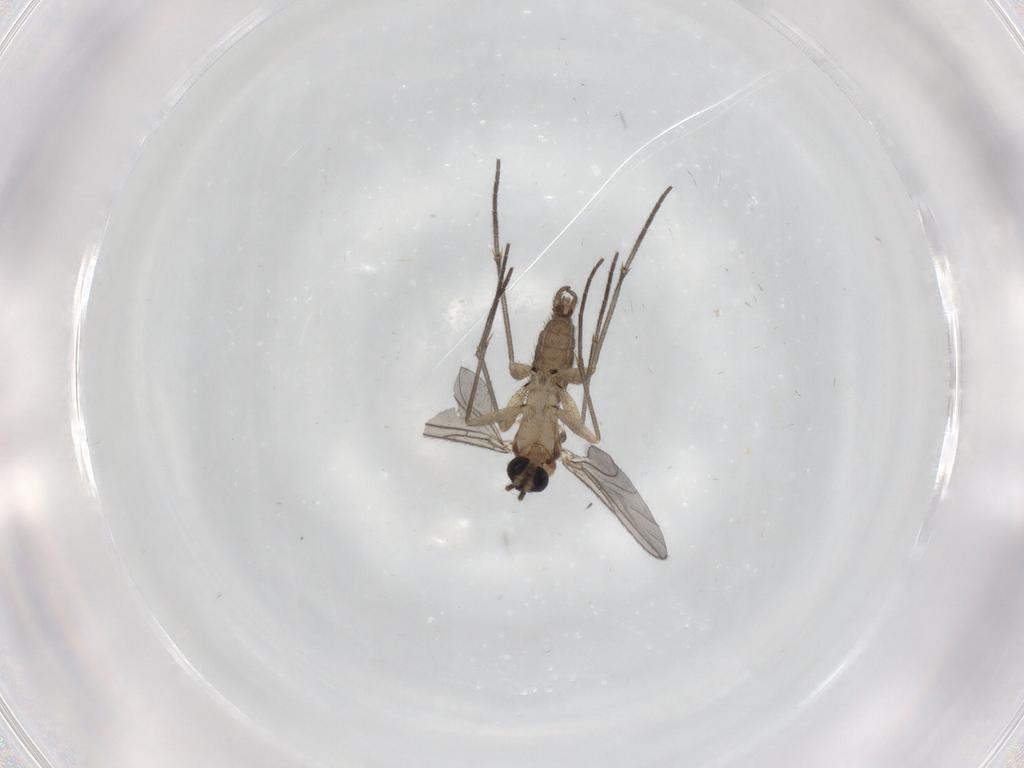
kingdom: Animalia
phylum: Arthropoda
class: Insecta
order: Diptera
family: Sciaridae
